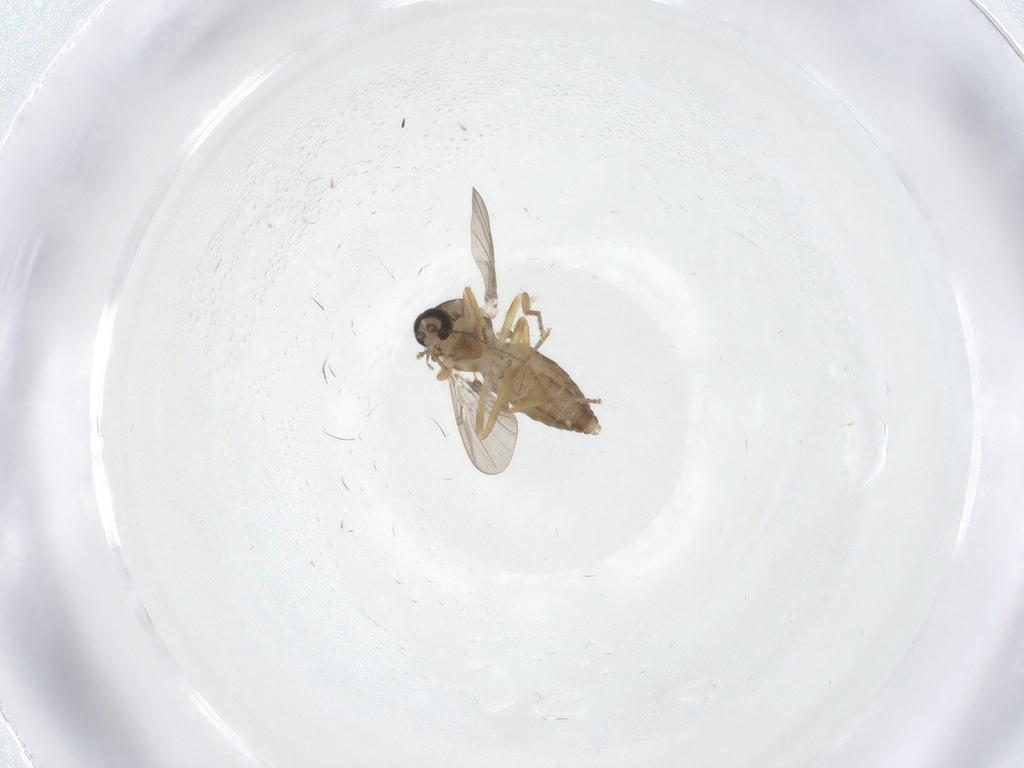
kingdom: Animalia
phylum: Arthropoda
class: Insecta
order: Diptera
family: Ceratopogonidae
